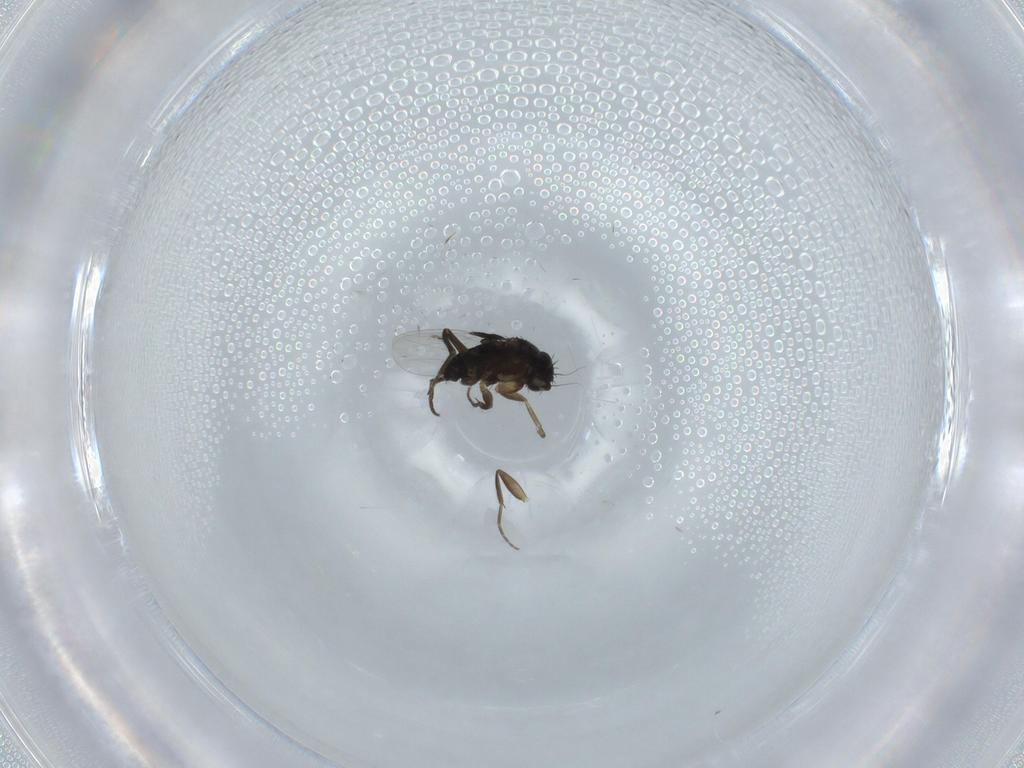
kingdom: Animalia
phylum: Arthropoda
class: Insecta
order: Diptera
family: Phoridae
